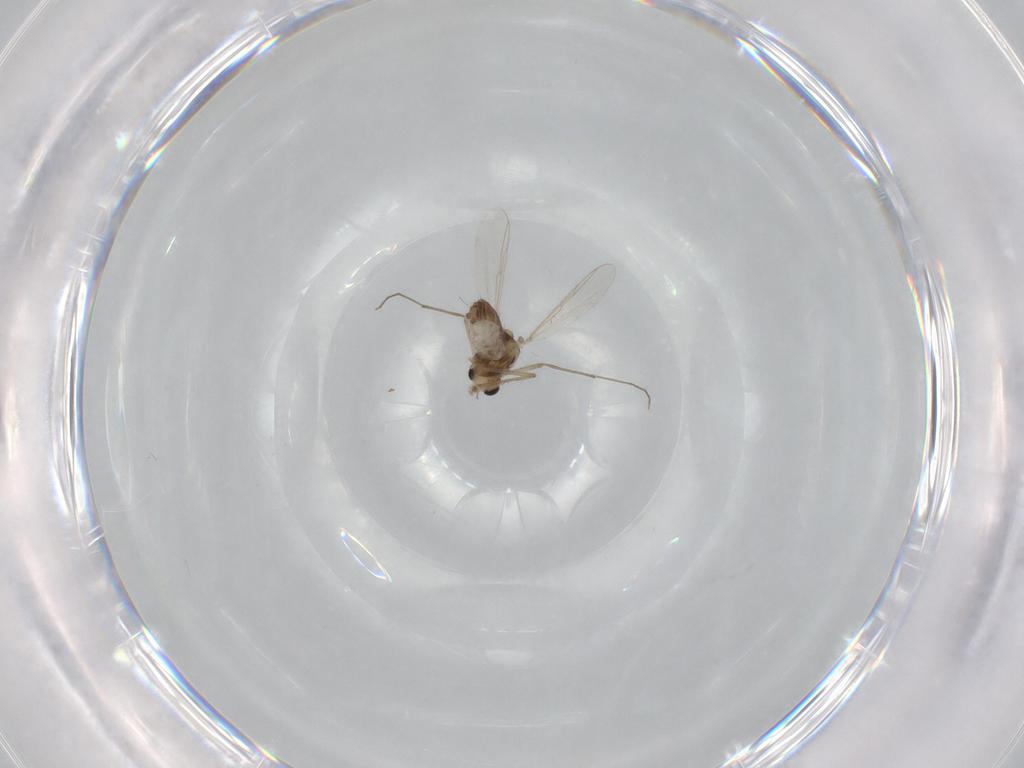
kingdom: Animalia
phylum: Arthropoda
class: Insecta
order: Diptera
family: Chironomidae
